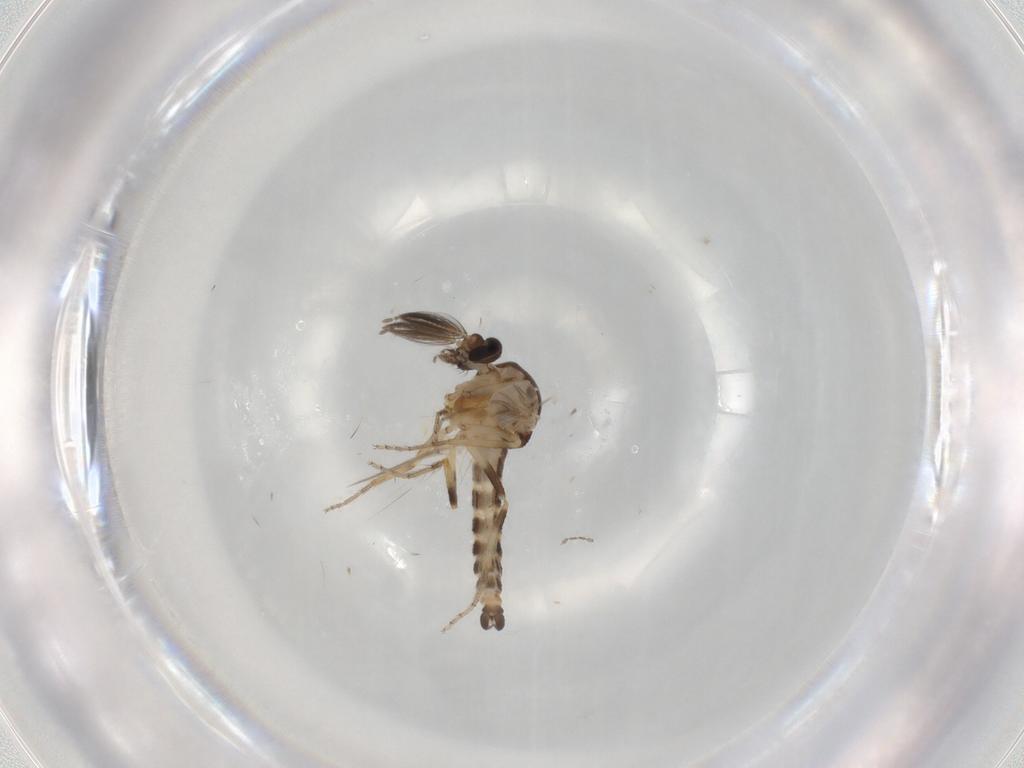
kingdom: Animalia
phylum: Arthropoda
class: Insecta
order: Diptera
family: Ceratopogonidae
